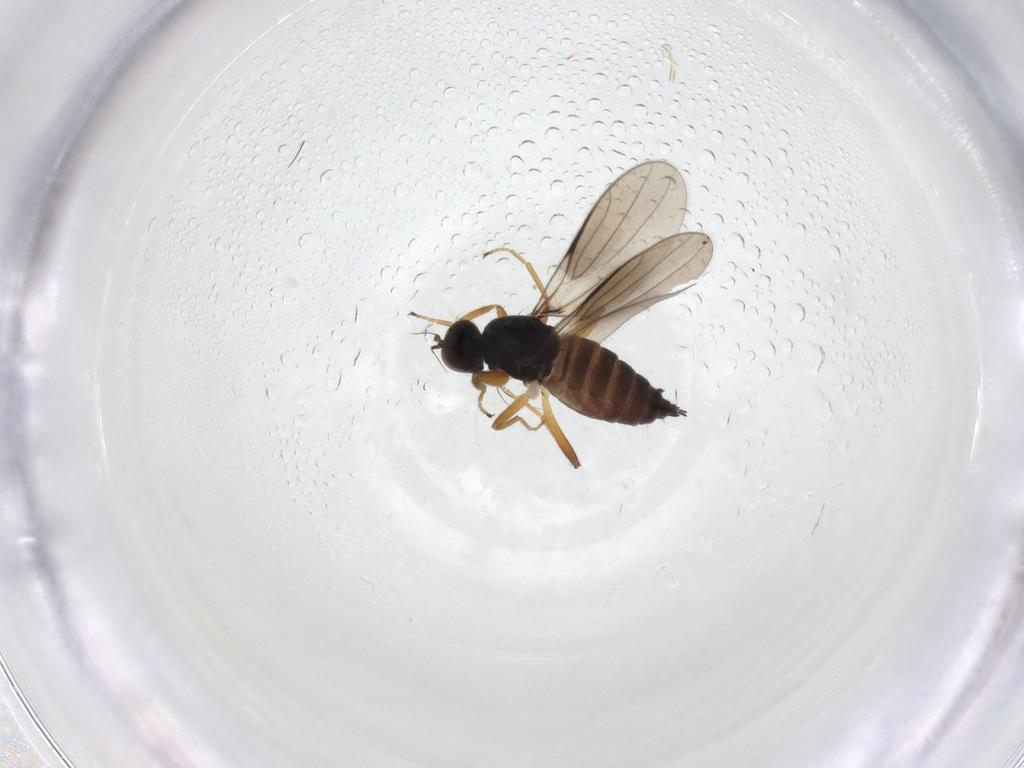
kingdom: Animalia
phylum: Arthropoda
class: Insecta
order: Diptera
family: Hybotidae
